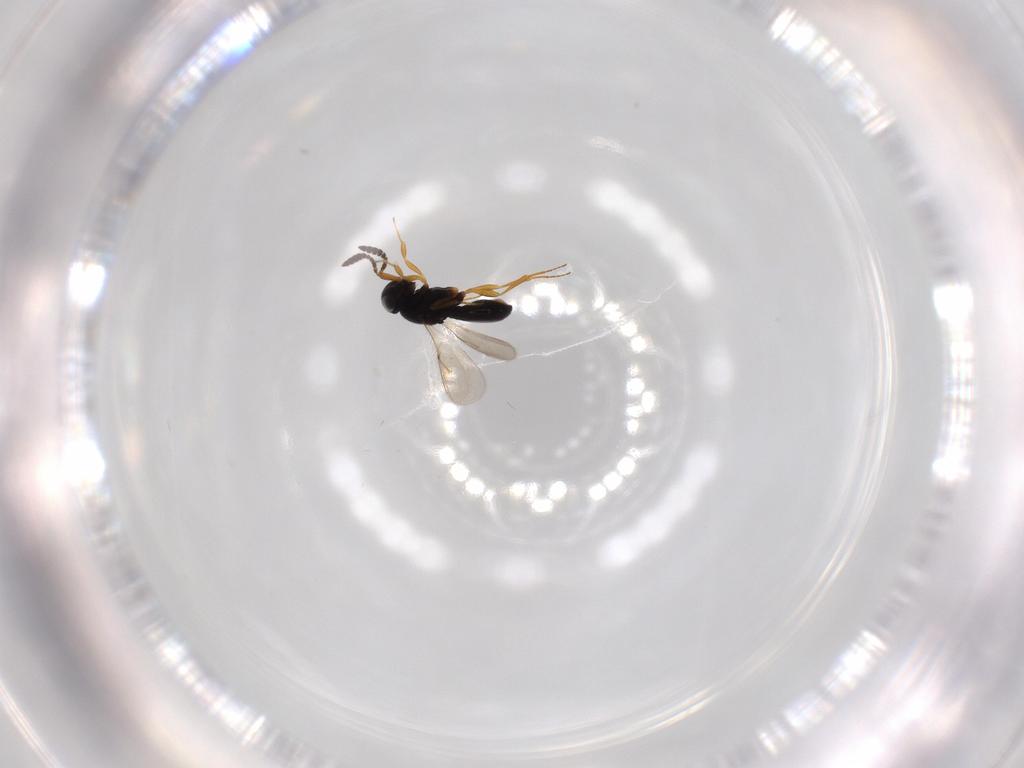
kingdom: Animalia
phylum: Arthropoda
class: Insecta
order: Hymenoptera
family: Scelionidae
